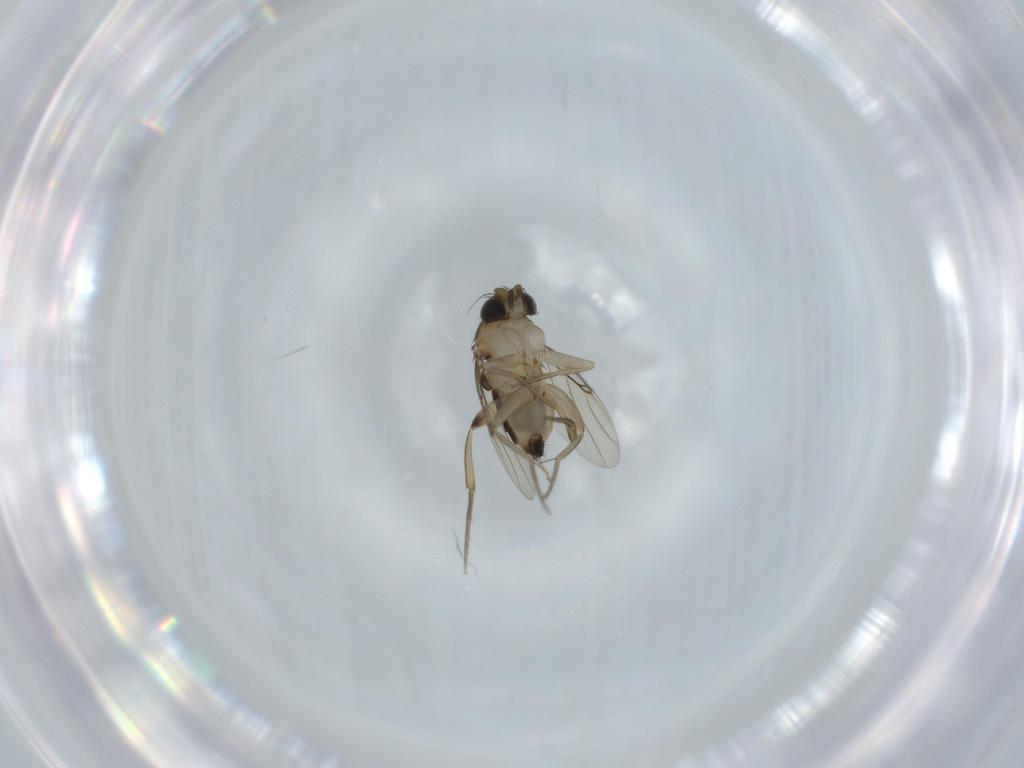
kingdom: Animalia
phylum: Arthropoda
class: Insecta
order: Diptera
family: Phoridae
